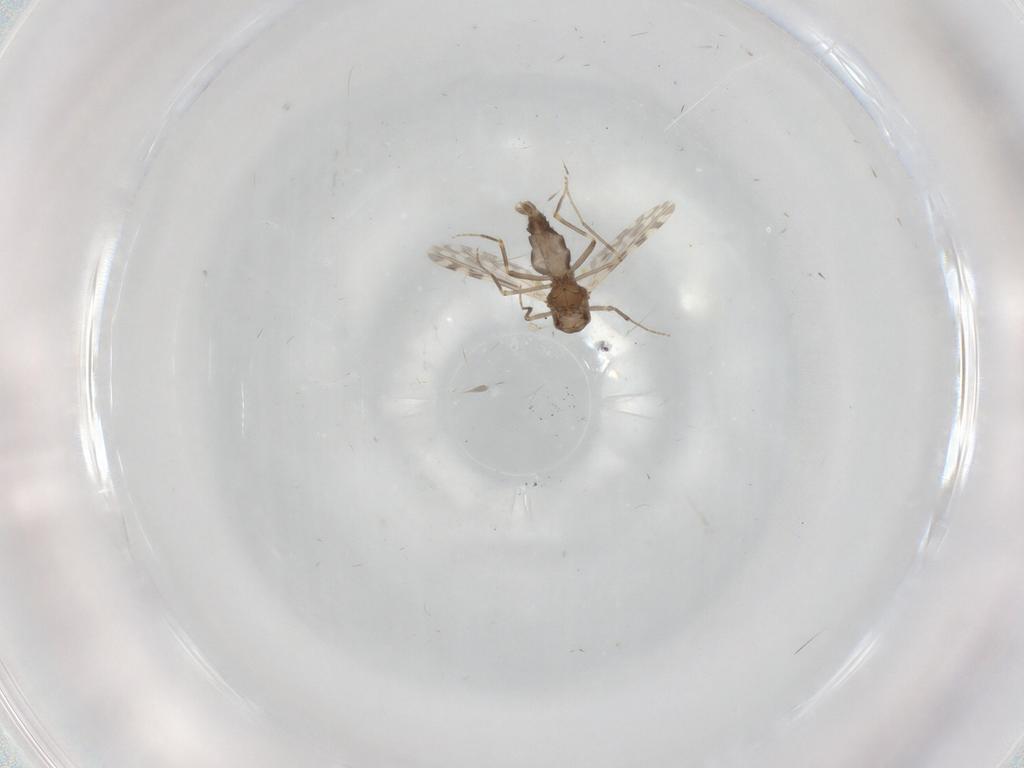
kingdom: Animalia
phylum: Arthropoda
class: Insecta
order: Diptera
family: Ceratopogonidae
